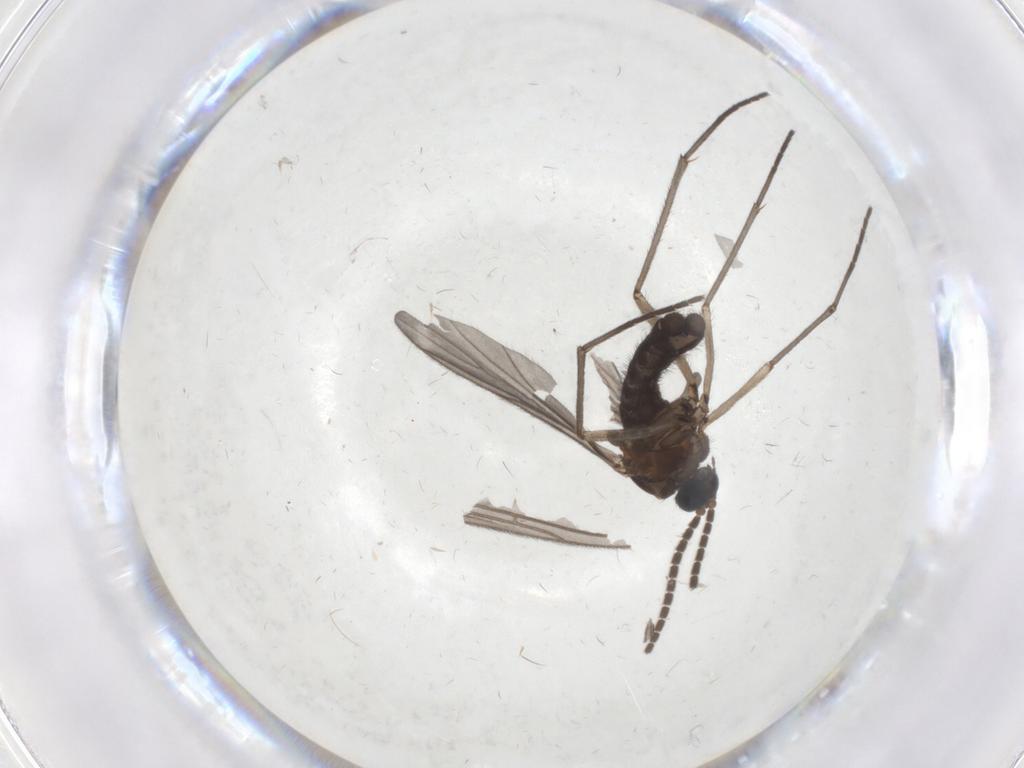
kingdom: Animalia
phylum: Arthropoda
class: Insecta
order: Diptera
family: Sciaridae
